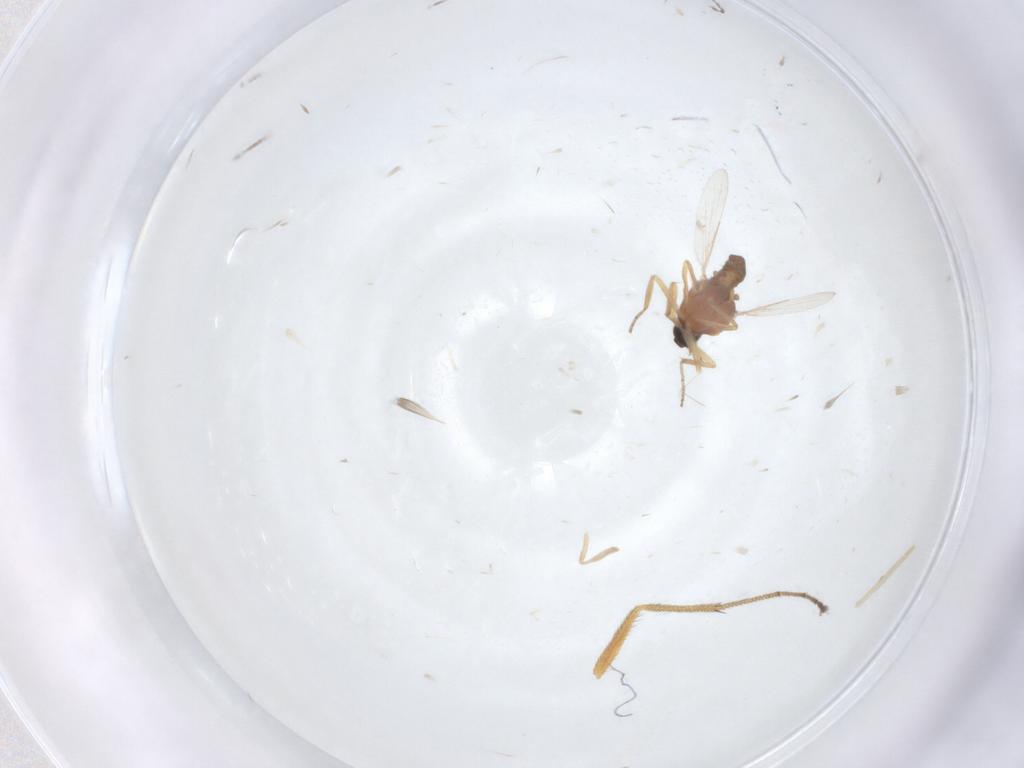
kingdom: Animalia
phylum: Arthropoda
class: Insecta
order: Diptera
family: Dolichopodidae
